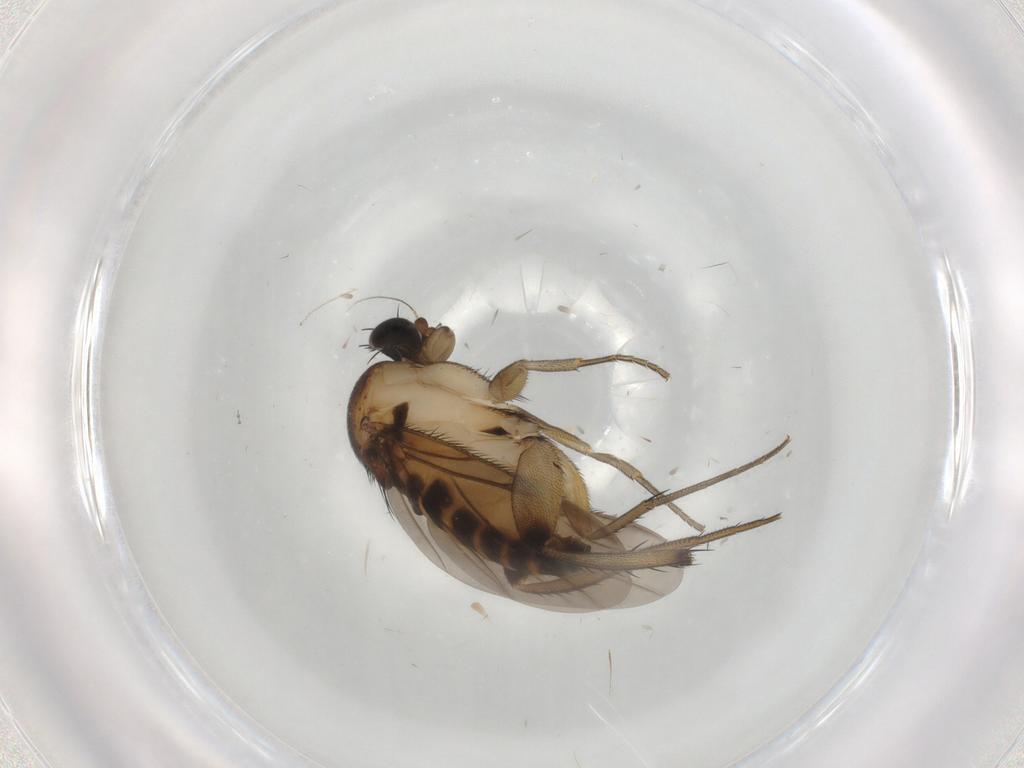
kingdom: Animalia
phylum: Arthropoda
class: Insecta
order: Diptera
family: Phoridae
